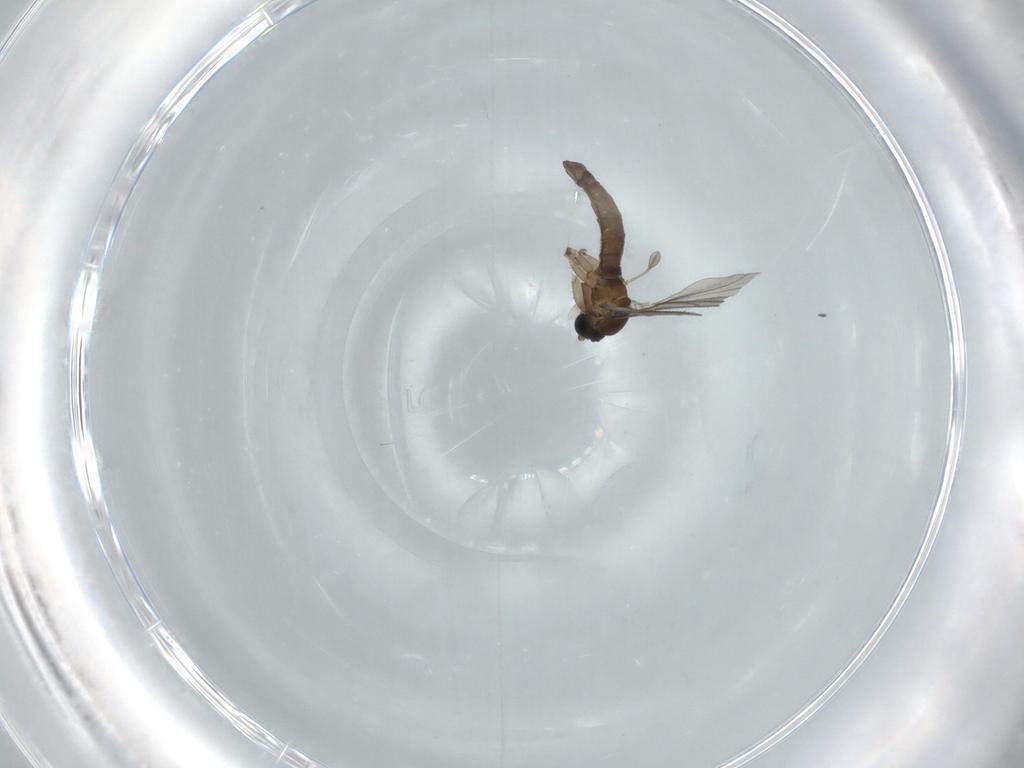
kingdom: Animalia
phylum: Arthropoda
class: Insecta
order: Diptera
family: Sciaridae
